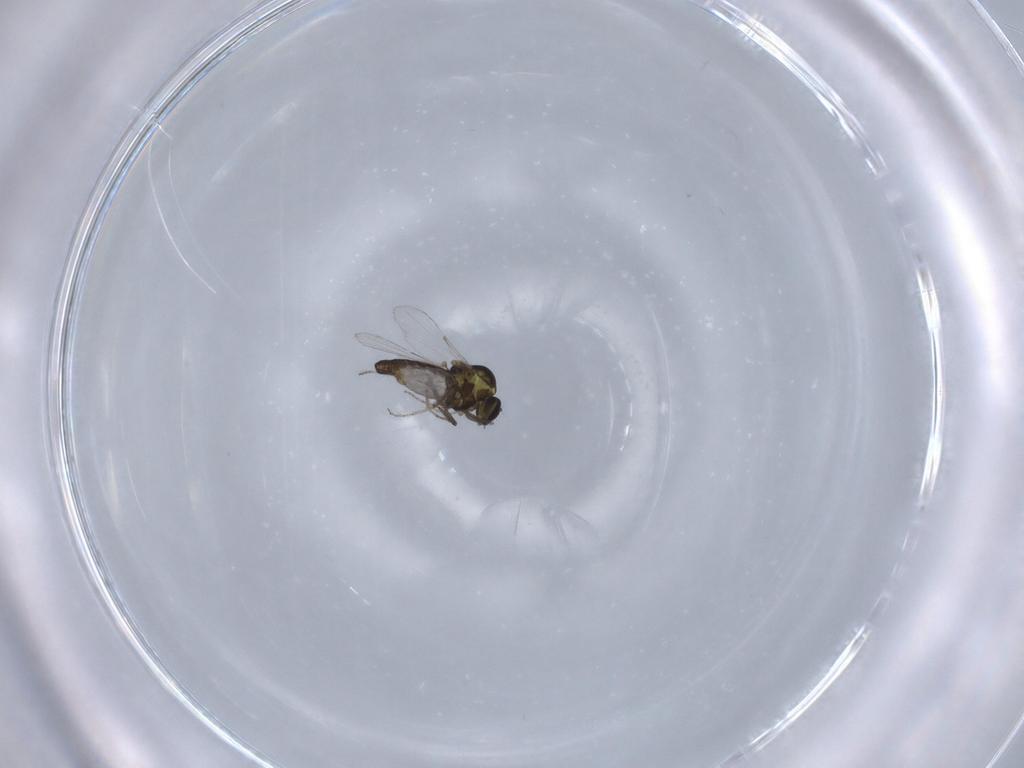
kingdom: Animalia
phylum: Arthropoda
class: Insecta
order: Diptera
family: Ceratopogonidae
